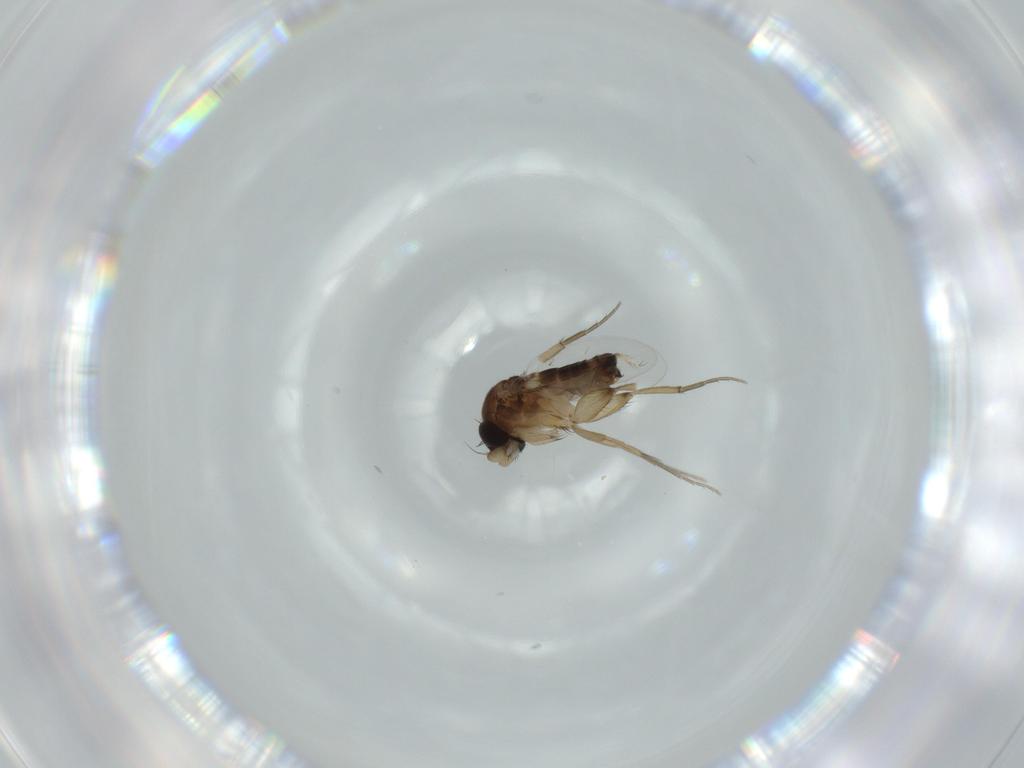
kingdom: Animalia
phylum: Arthropoda
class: Insecta
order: Diptera
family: Phoridae
